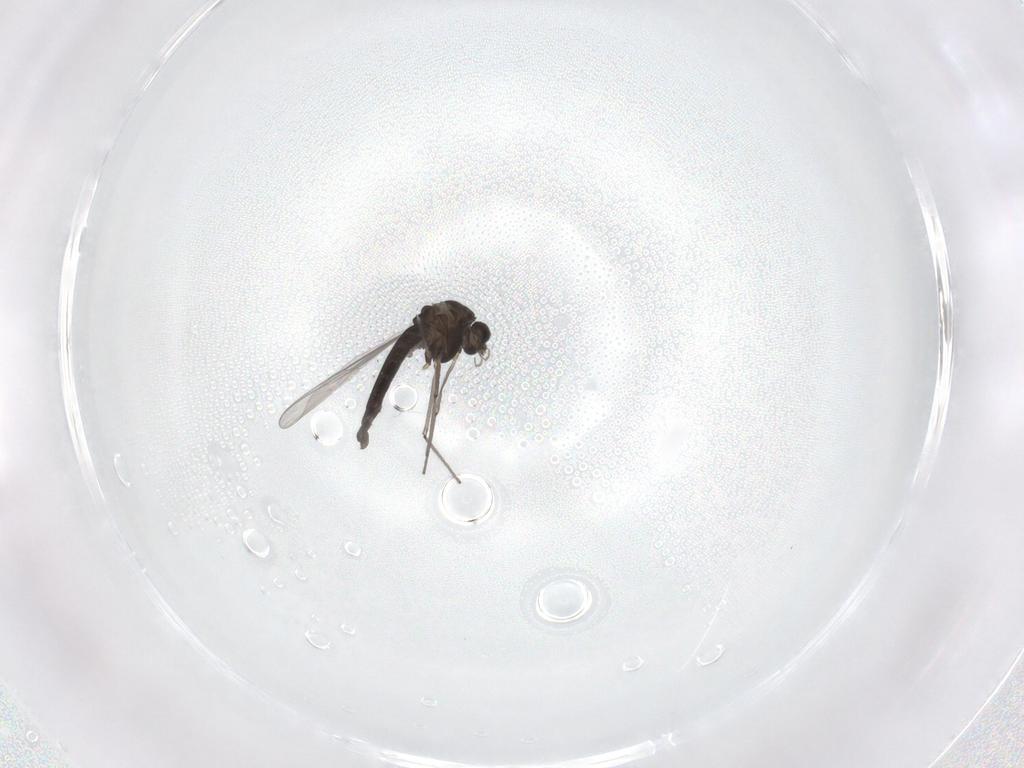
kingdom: Animalia
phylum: Arthropoda
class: Insecta
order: Diptera
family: Chironomidae
